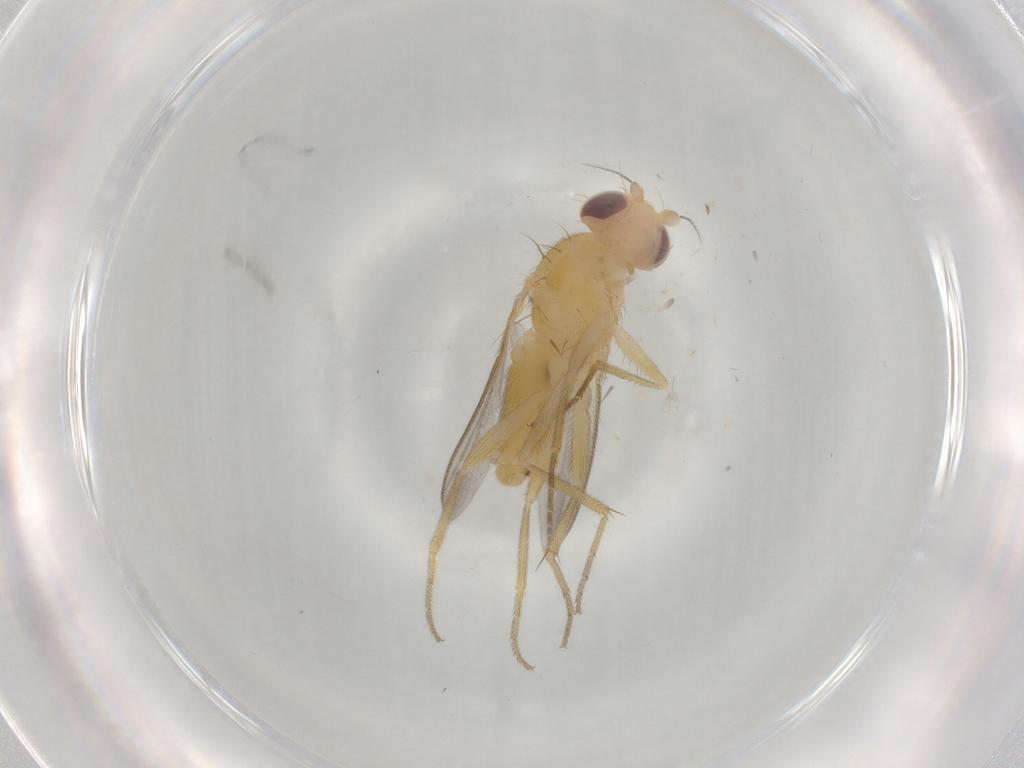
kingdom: Animalia
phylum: Arthropoda
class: Insecta
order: Diptera
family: Clusiidae
